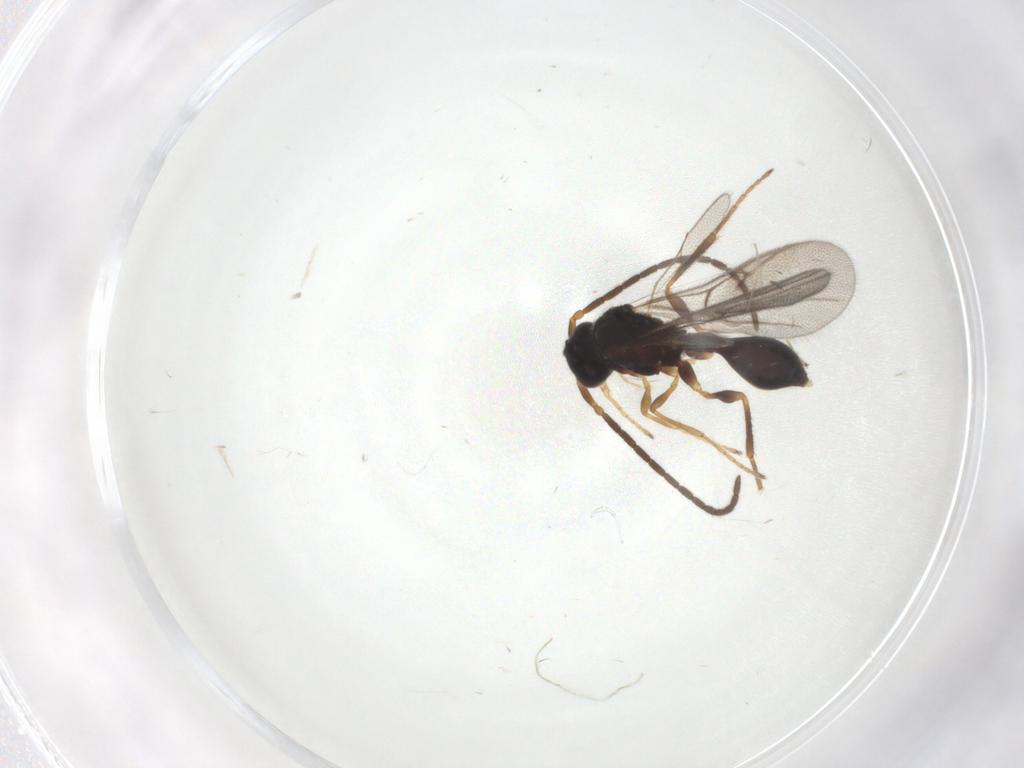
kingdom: Animalia
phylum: Arthropoda
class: Insecta
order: Hymenoptera
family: Diapriidae
